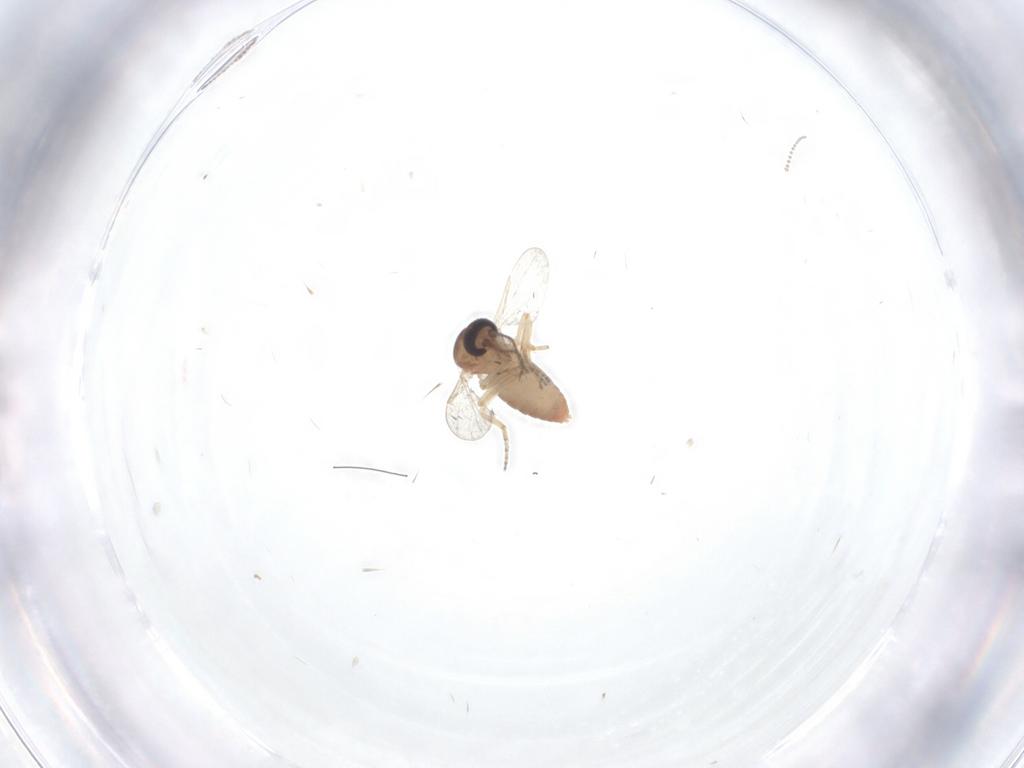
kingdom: Animalia
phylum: Arthropoda
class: Insecta
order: Diptera
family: Ceratopogonidae
